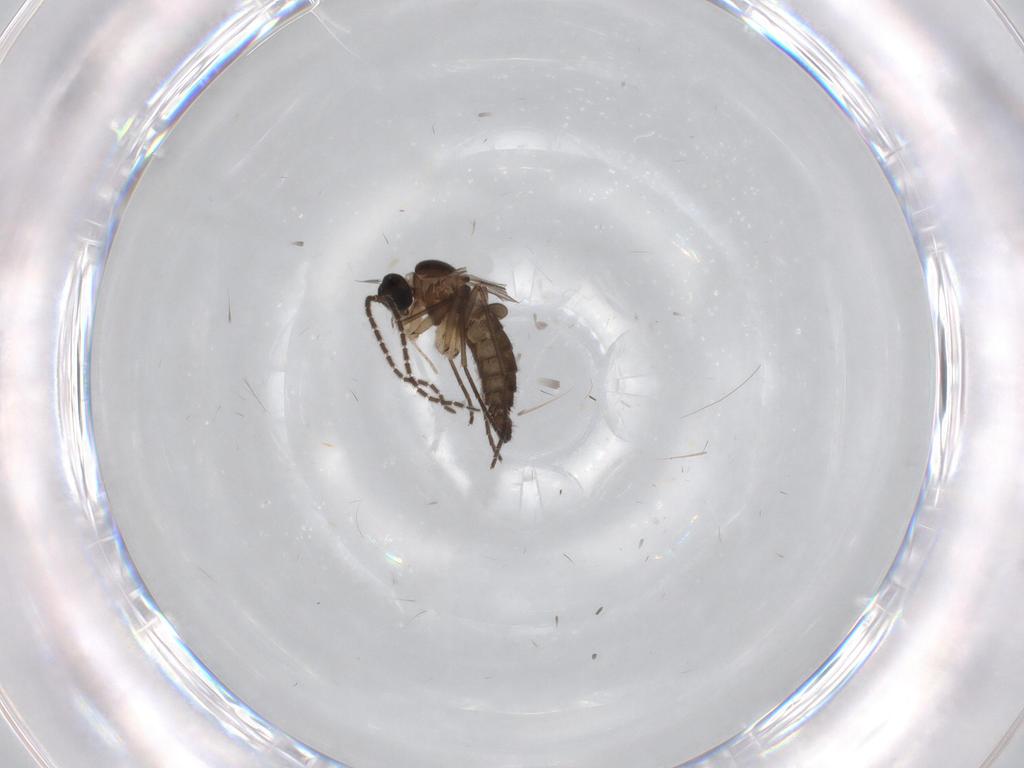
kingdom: Animalia
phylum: Arthropoda
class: Insecta
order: Diptera
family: Sciaridae
